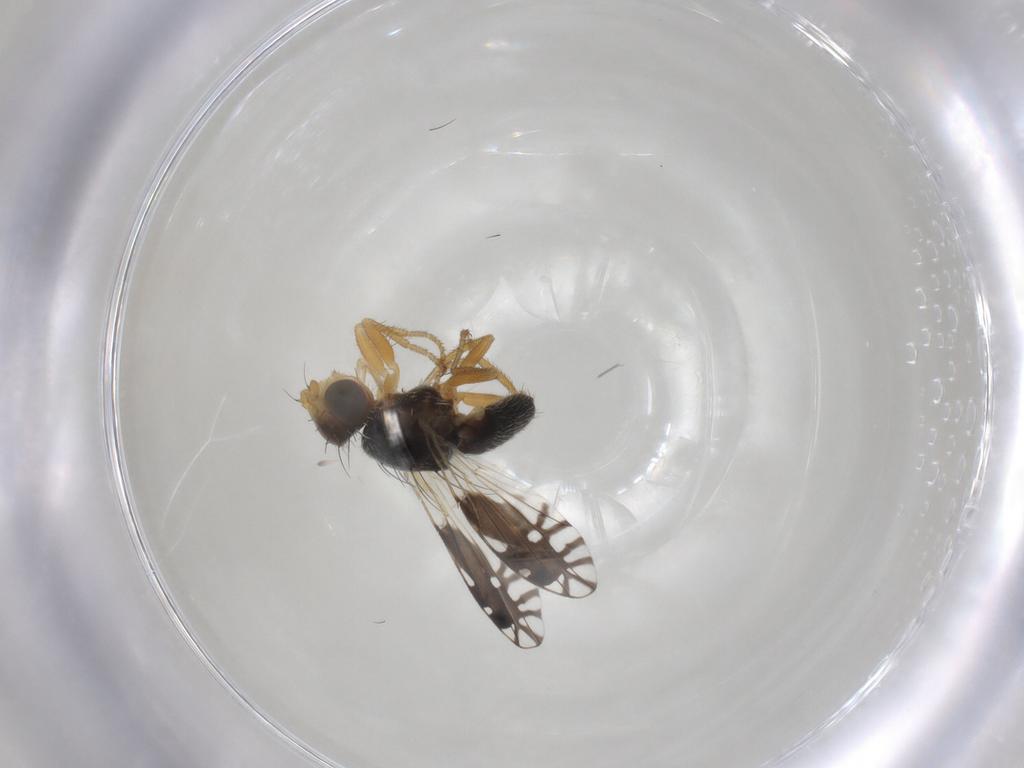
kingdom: Animalia
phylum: Arthropoda
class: Insecta
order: Diptera
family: Tephritidae
